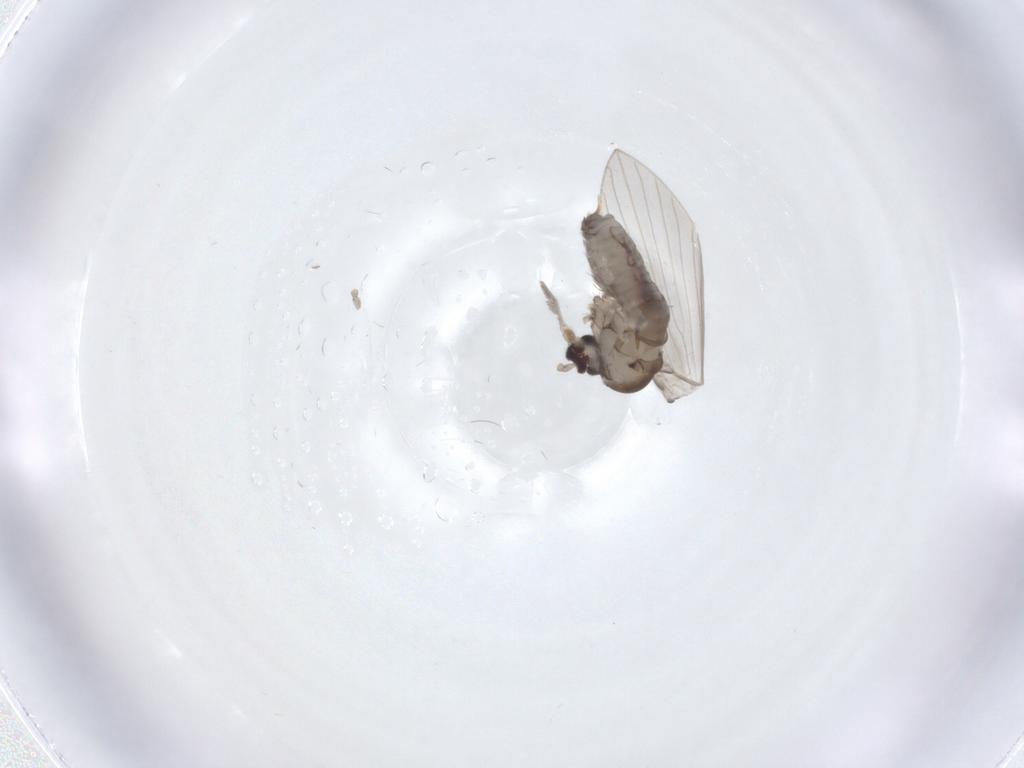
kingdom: Animalia
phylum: Arthropoda
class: Insecta
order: Diptera
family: Psychodidae
